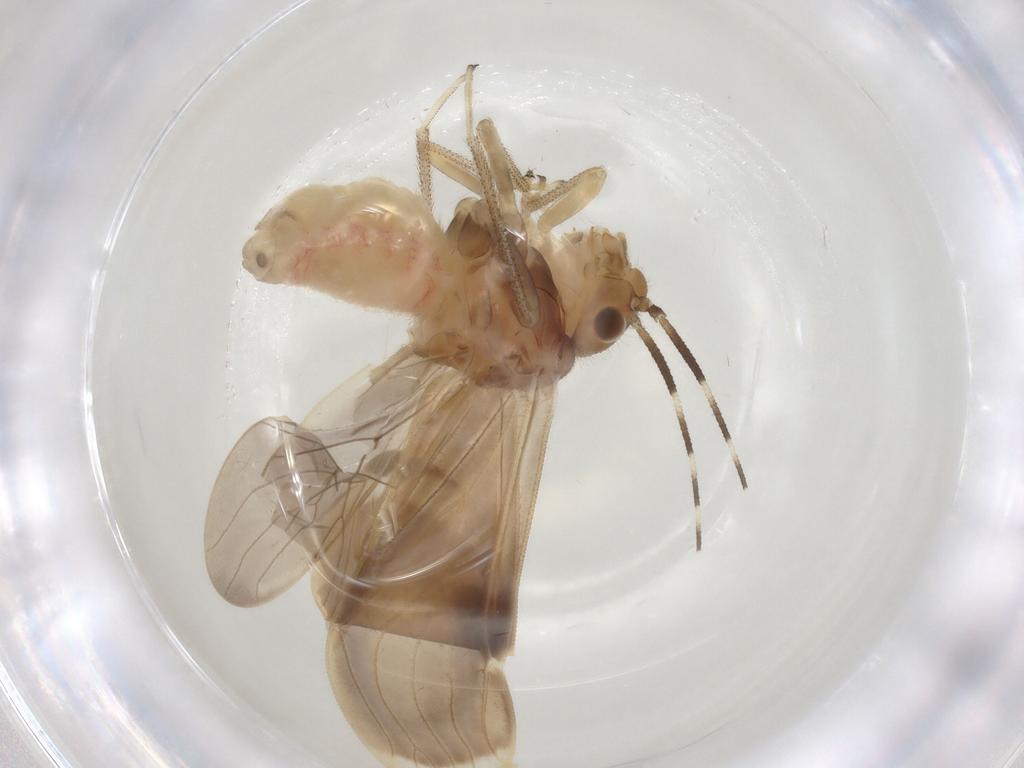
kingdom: Animalia
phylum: Arthropoda
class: Insecta
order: Psocodea
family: Amphipsocidae
